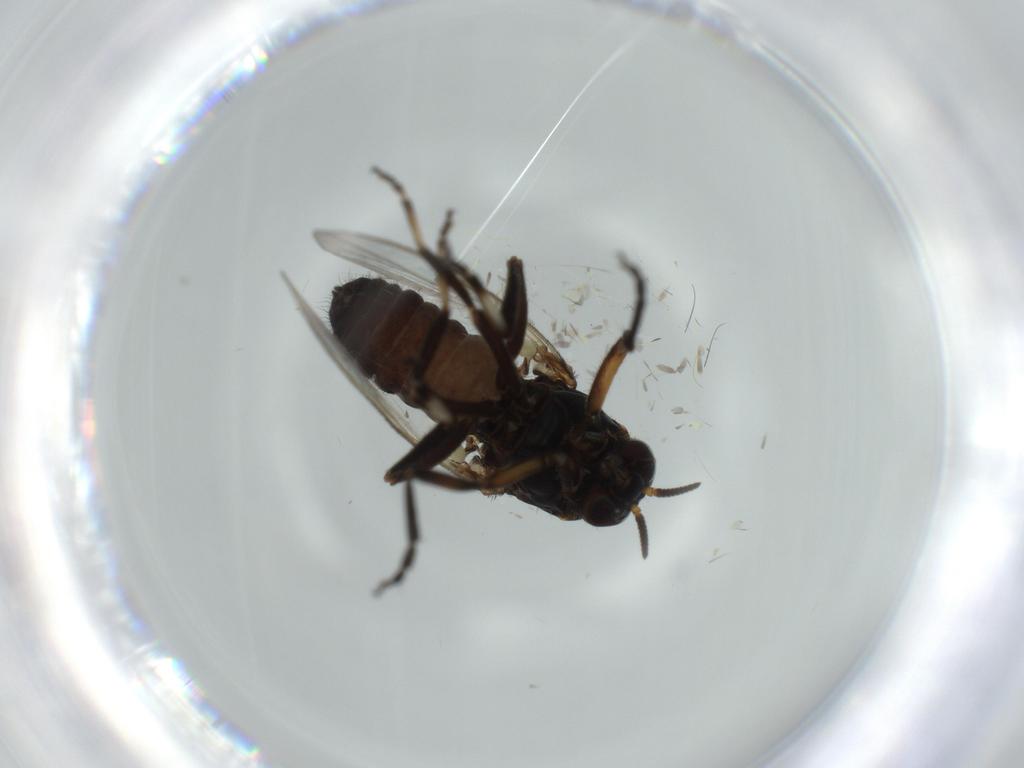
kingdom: Animalia
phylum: Arthropoda
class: Insecta
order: Diptera
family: Cecidomyiidae
